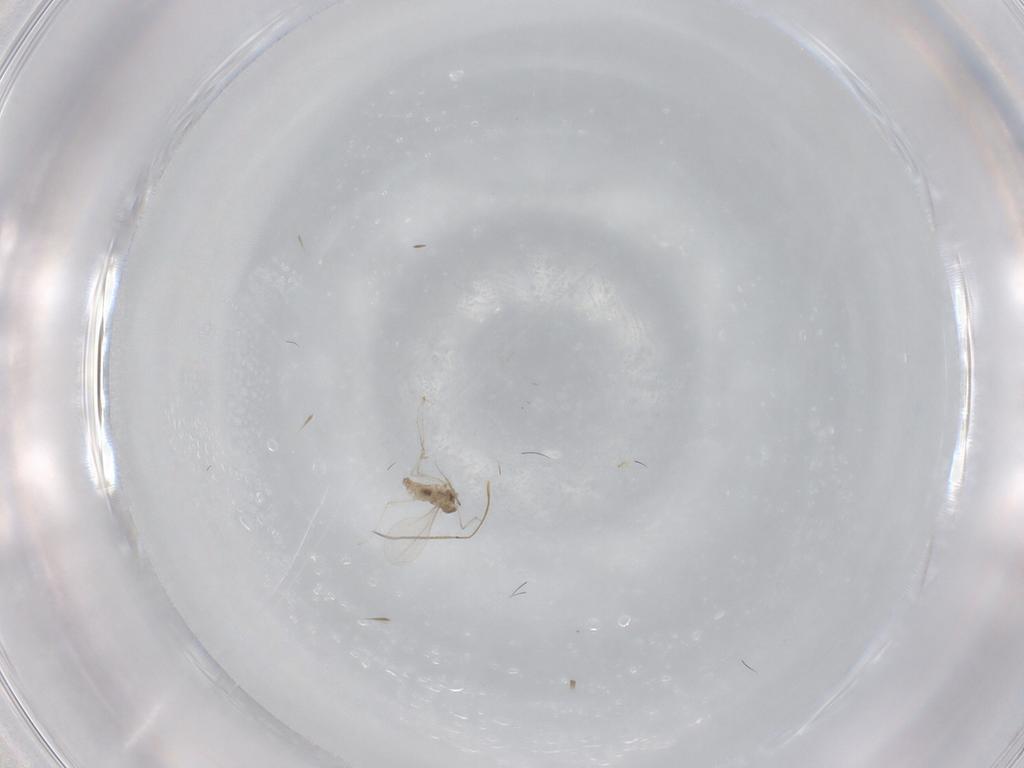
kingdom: Animalia
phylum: Arthropoda
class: Insecta
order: Diptera
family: Cecidomyiidae
